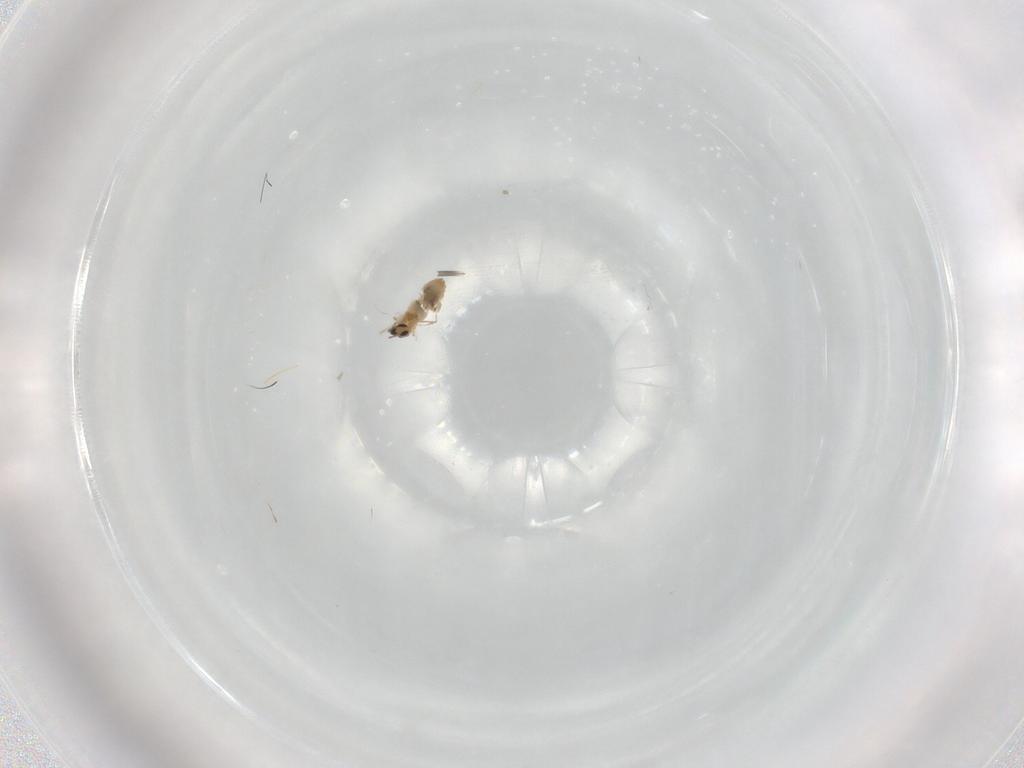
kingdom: Animalia
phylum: Arthropoda
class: Insecta
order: Diptera
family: Cecidomyiidae
